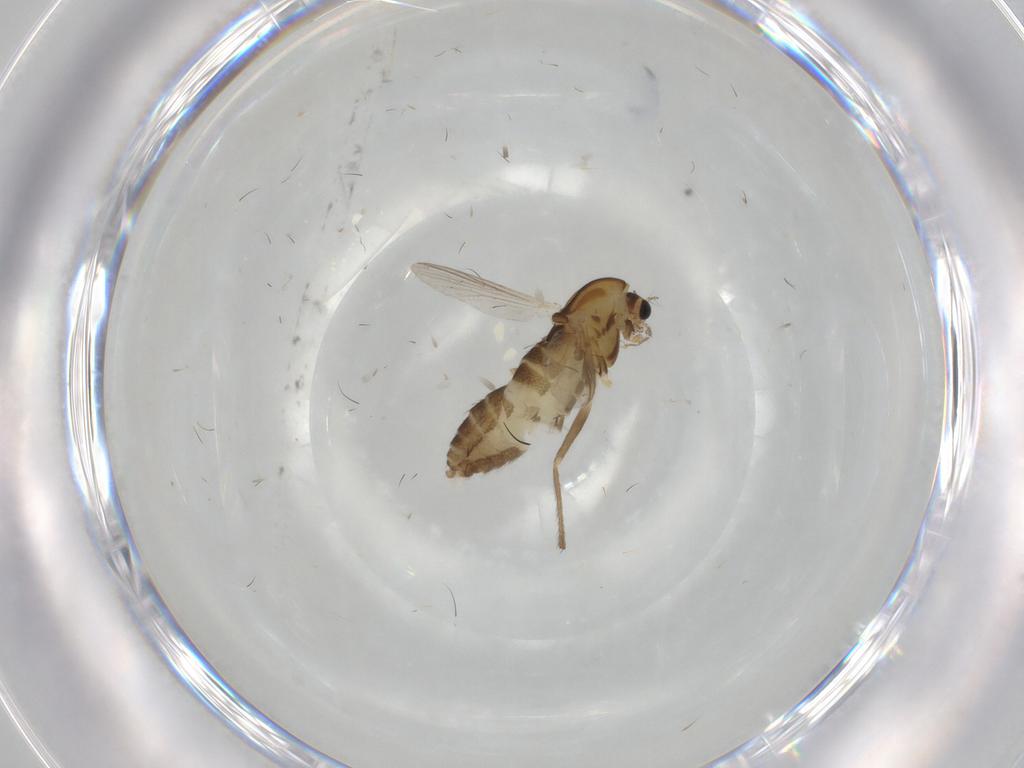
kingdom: Animalia
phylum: Arthropoda
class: Insecta
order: Diptera
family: Chironomidae
